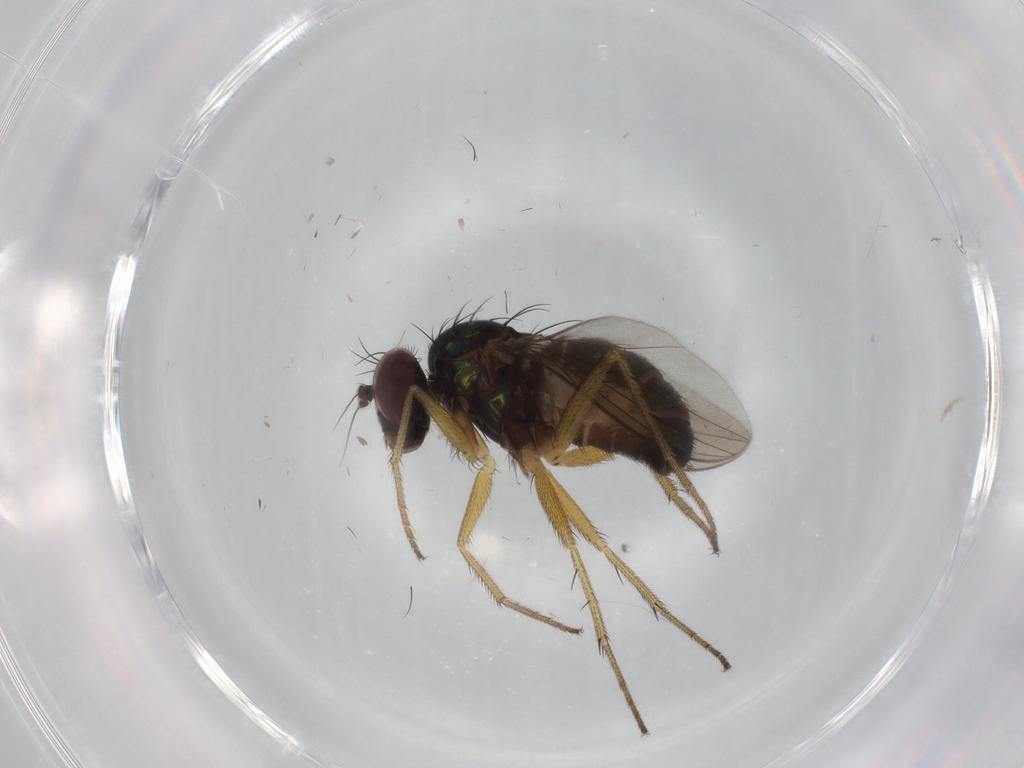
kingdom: Animalia
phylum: Arthropoda
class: Insecta
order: Diptera
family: Dolichopodidae
